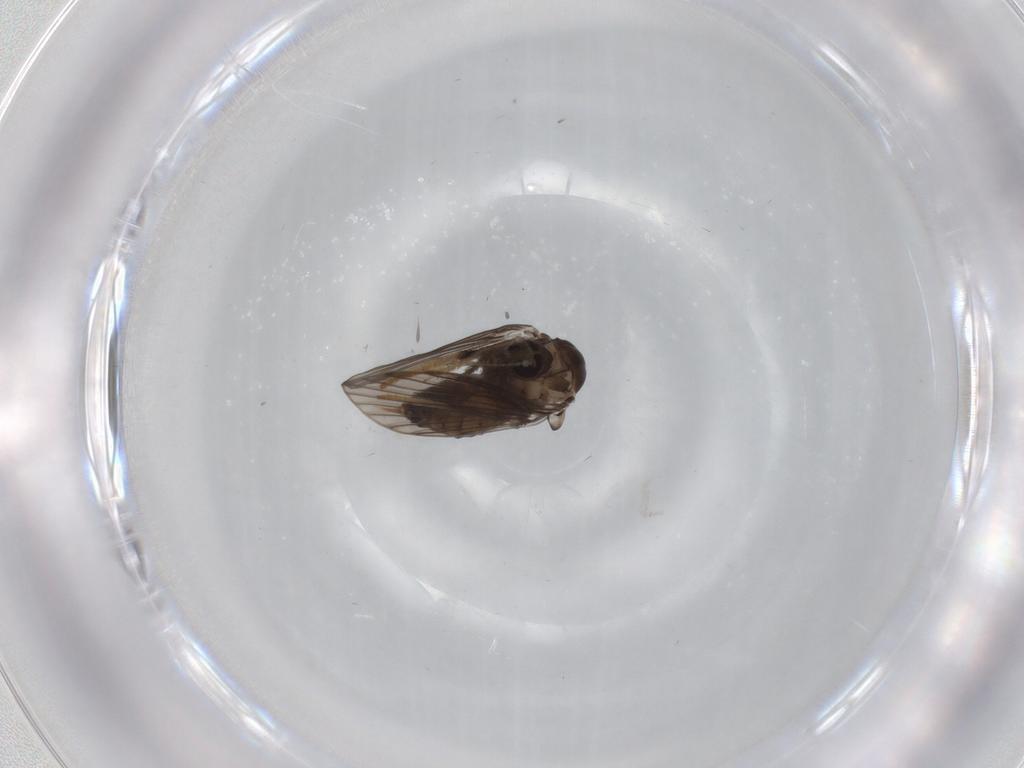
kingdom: Animalia
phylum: Arthropoda
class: Insecta
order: Diptera
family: Psychodidae
